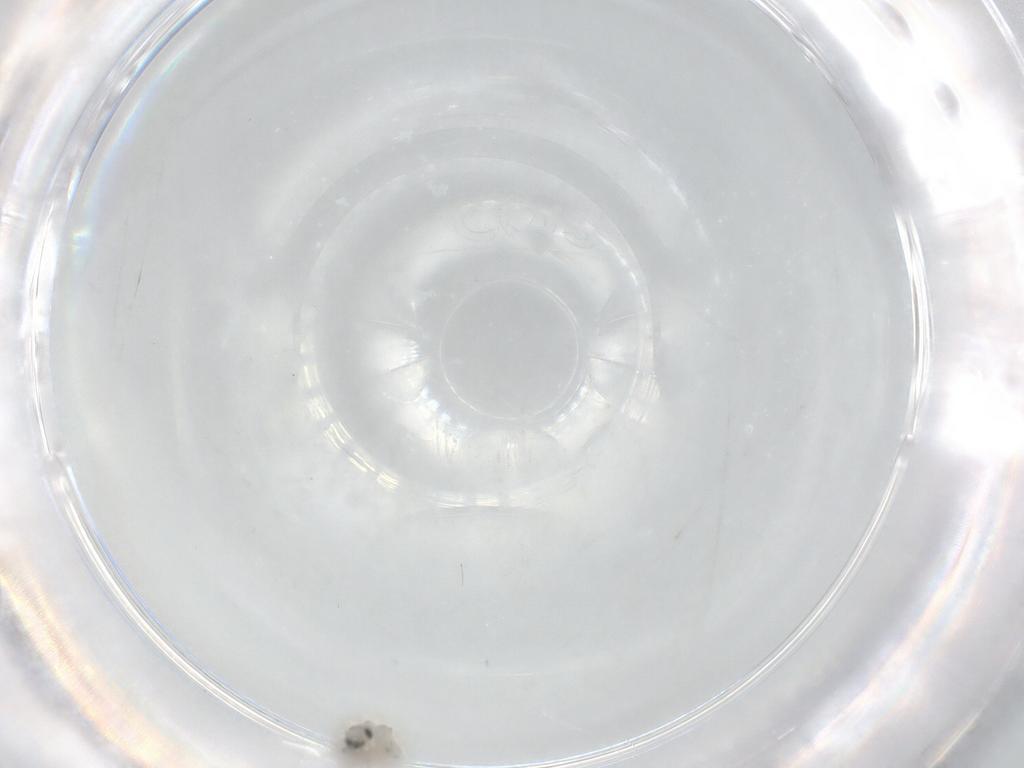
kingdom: Animalia
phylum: Arthropoda
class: Insecta
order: Diptera
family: Cecidomyiidae
